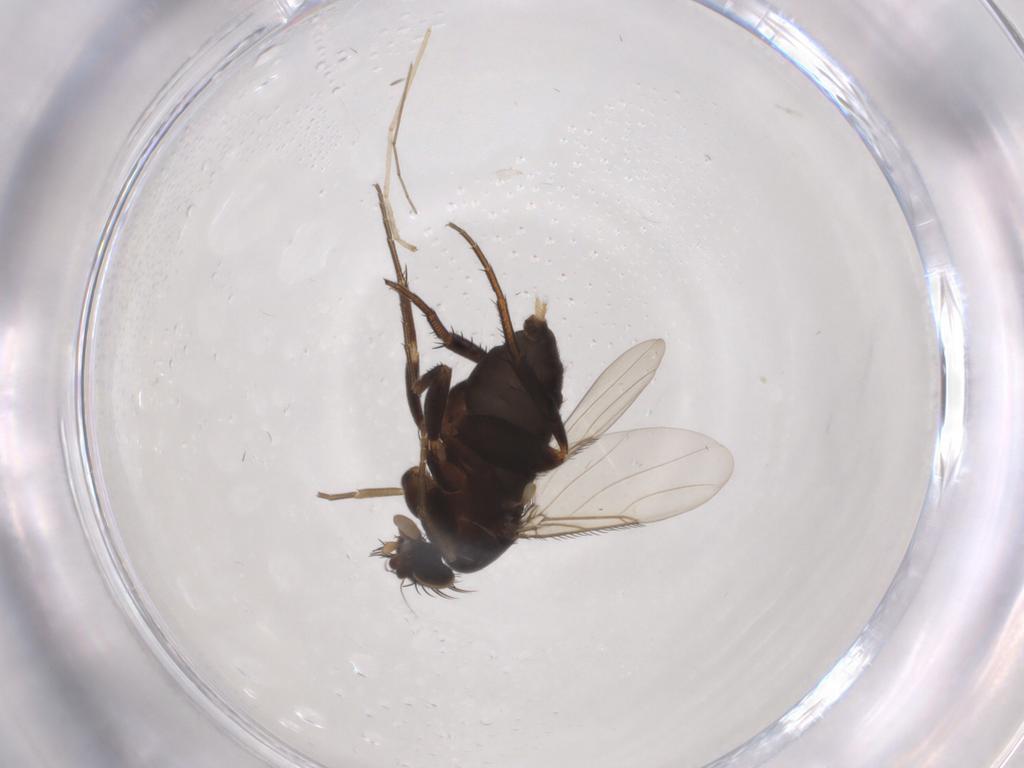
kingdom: Animalia
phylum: Arthropoda
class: Insecta
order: Diptera
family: Phoridae
